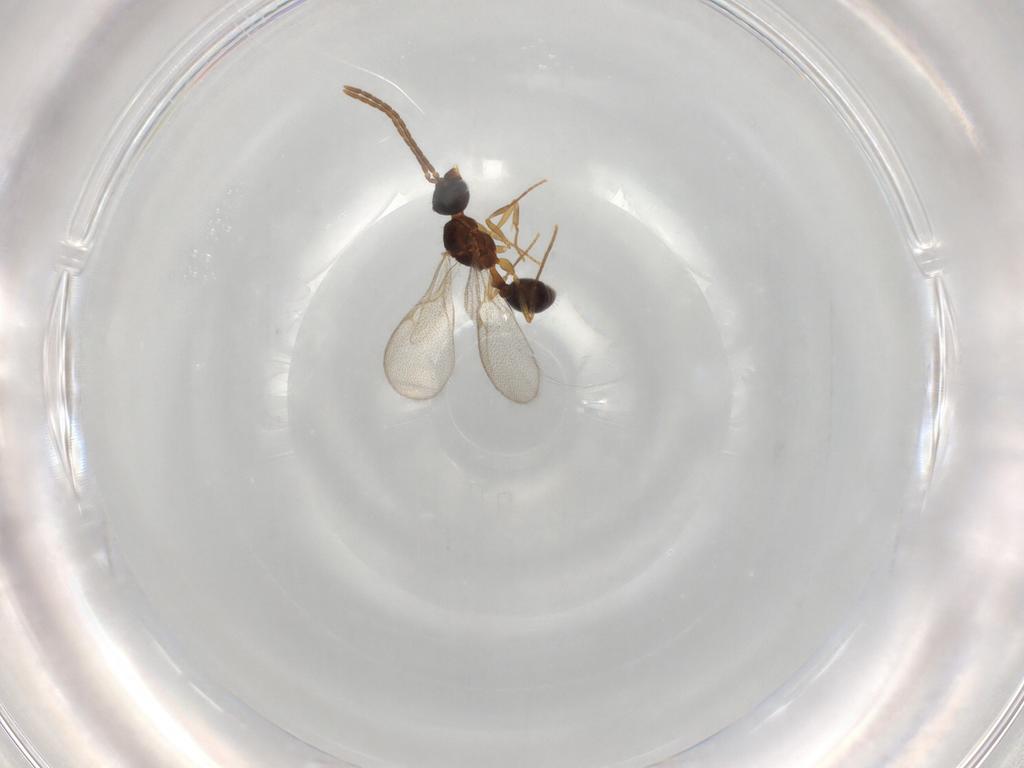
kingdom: Animalia
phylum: Arthropoda
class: Insecta
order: Hymenoptera
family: Formicidae
